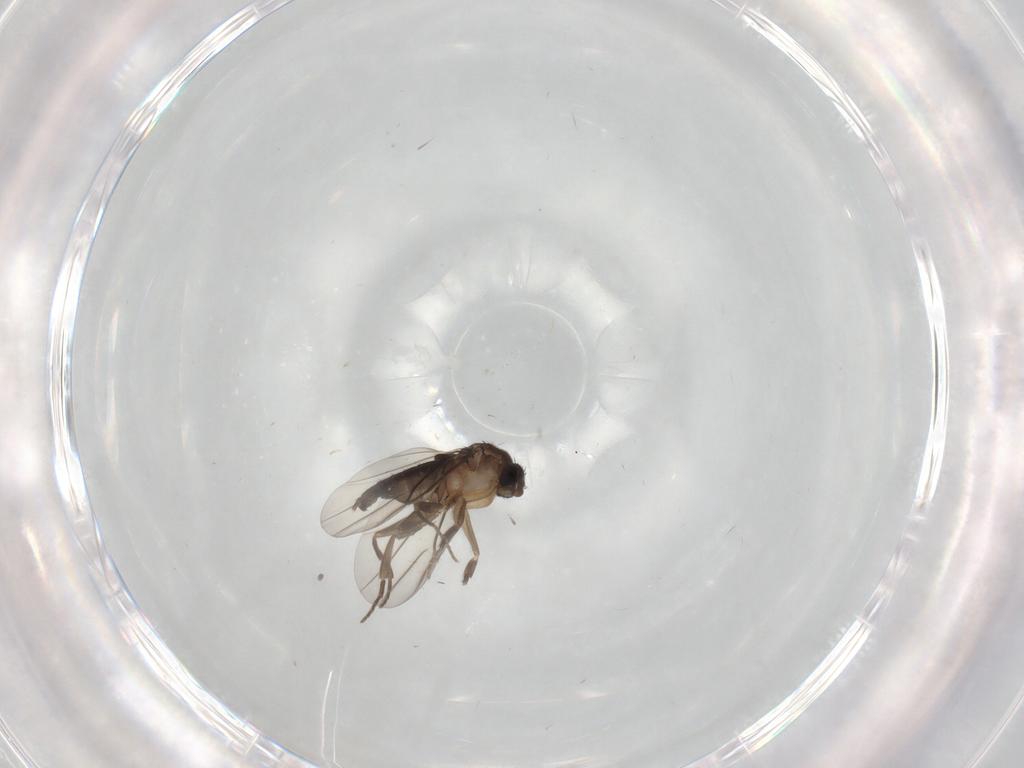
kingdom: Animalia
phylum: Arthropoda
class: Insecta
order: Diptera
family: Phoridae
